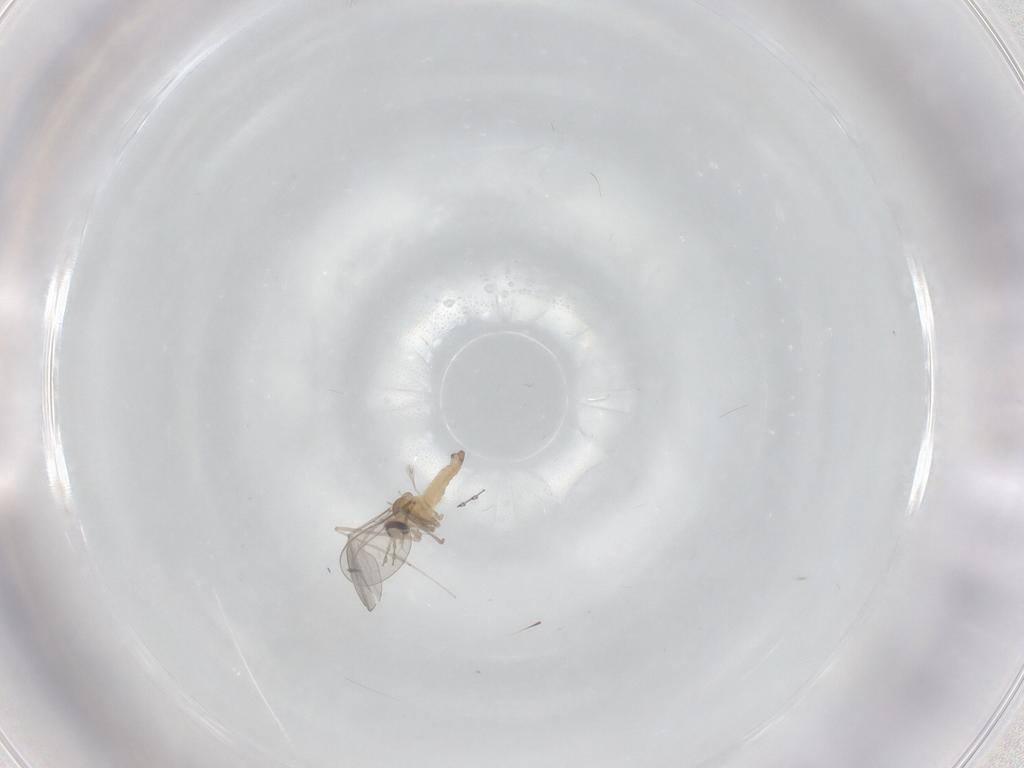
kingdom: Animalia
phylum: Arthropoda
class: Insecta
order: Diptera
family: Cecidomyiidae
